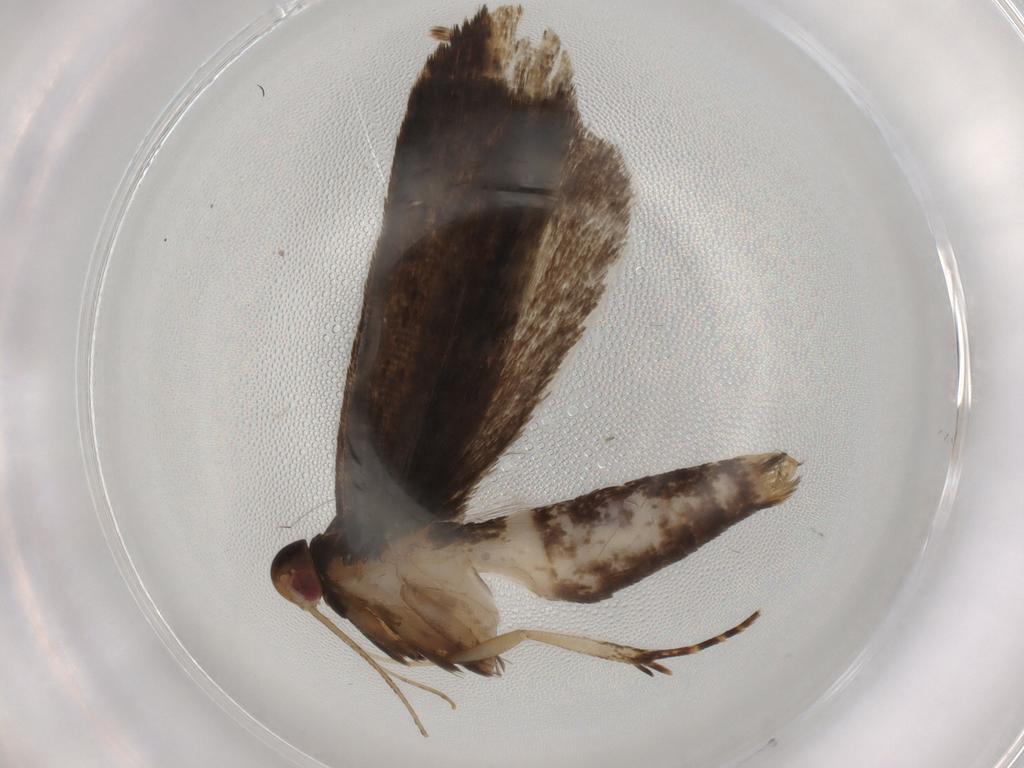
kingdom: Animalia
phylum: Arthropoda
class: Insecta
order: Lepidoptera
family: Gelechiidae
